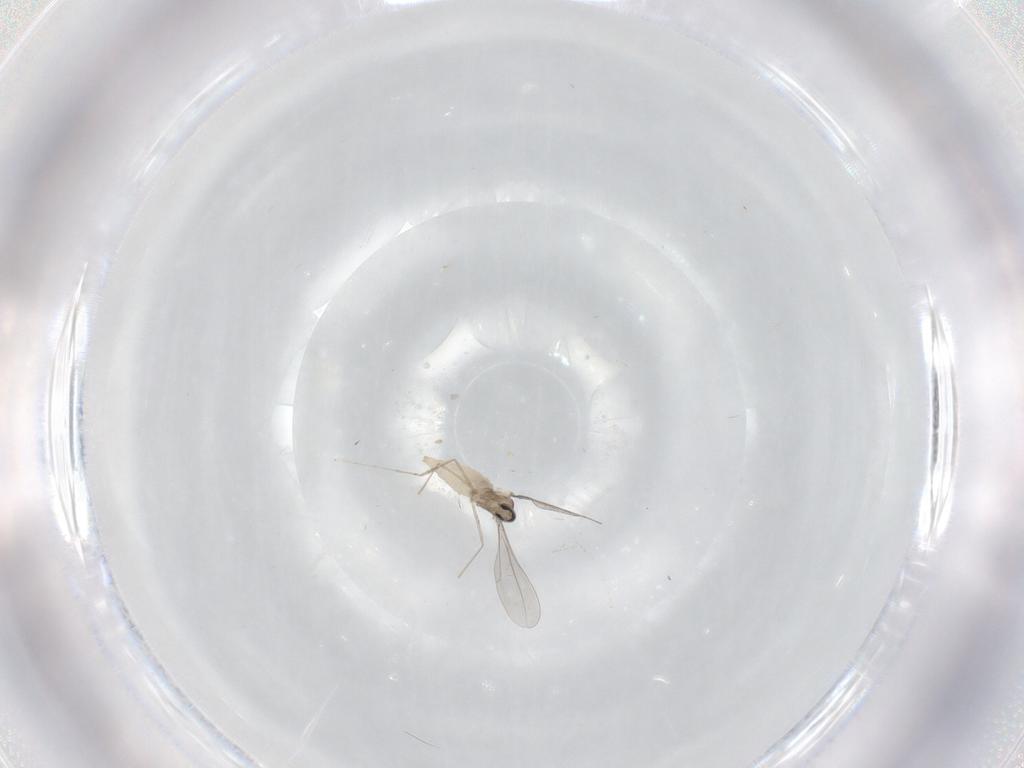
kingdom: Animalia
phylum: Arthropoda
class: Insecta
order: Diptera
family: Cecidomyiidae
